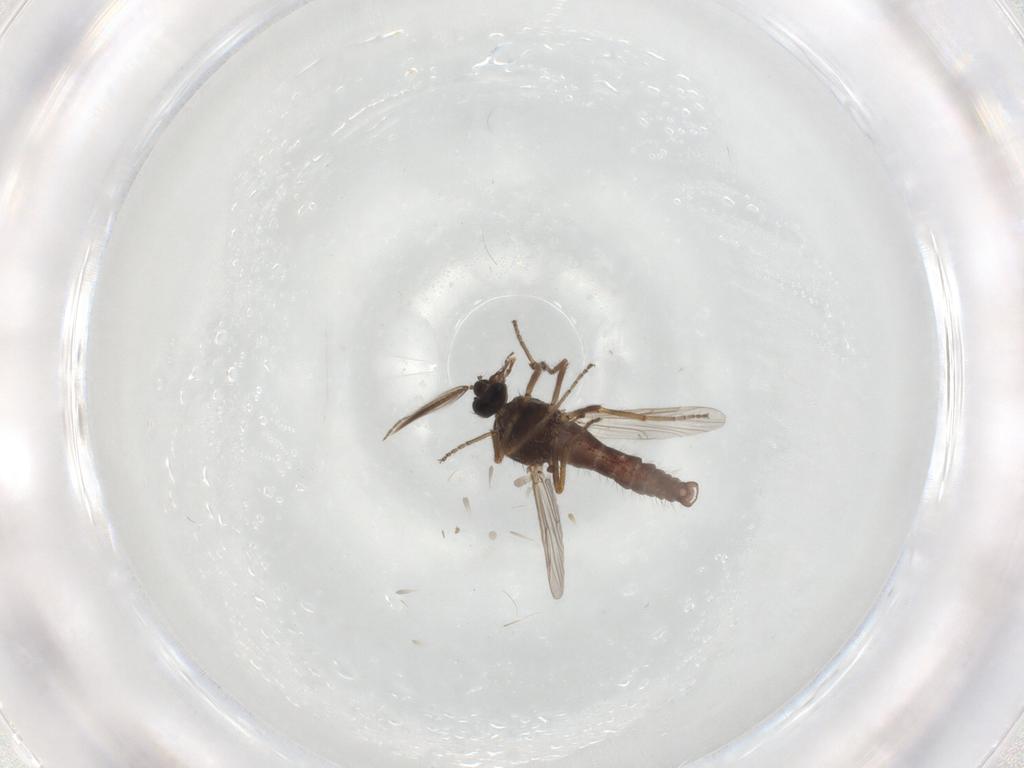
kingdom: Animalia
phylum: Arthropoda
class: Insecta
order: Diptera
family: Ceratopogonidae
